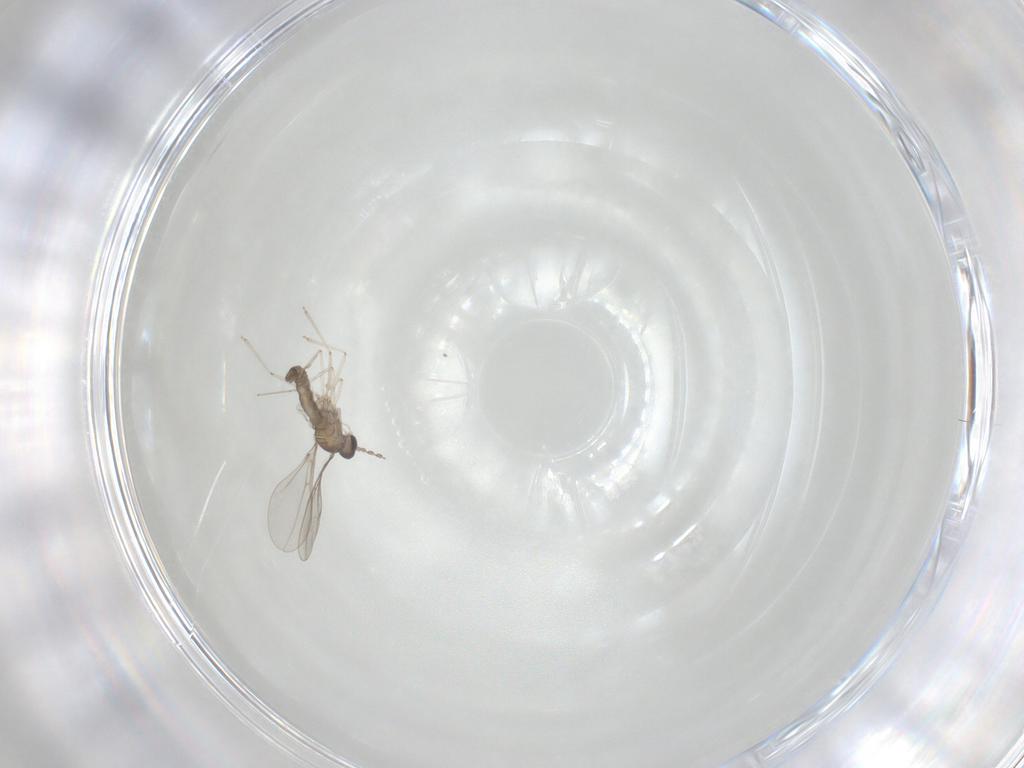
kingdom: Animalia
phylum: Arthropoda
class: Insecta
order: Diptera
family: Cecidomyiidae
